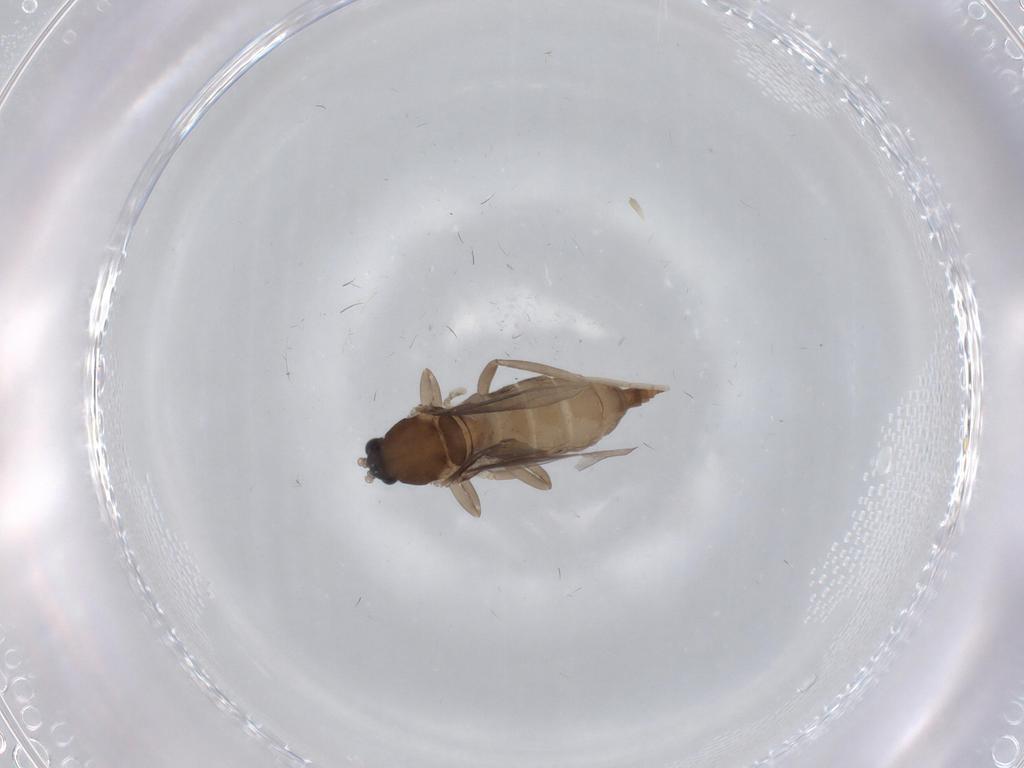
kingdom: Animalia
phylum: Arthropoda
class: Insecta
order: Diptera
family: Cecidomyiidae
